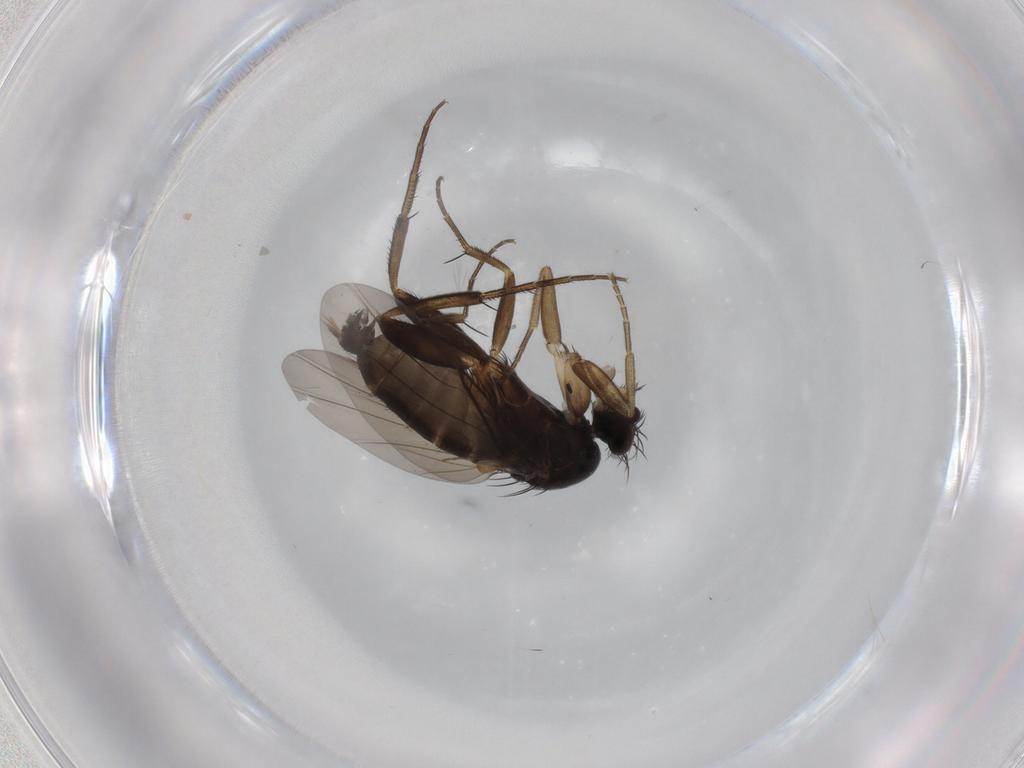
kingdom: Animalia
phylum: Arthropoda
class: Insecta
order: Diptera
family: Phoridae
